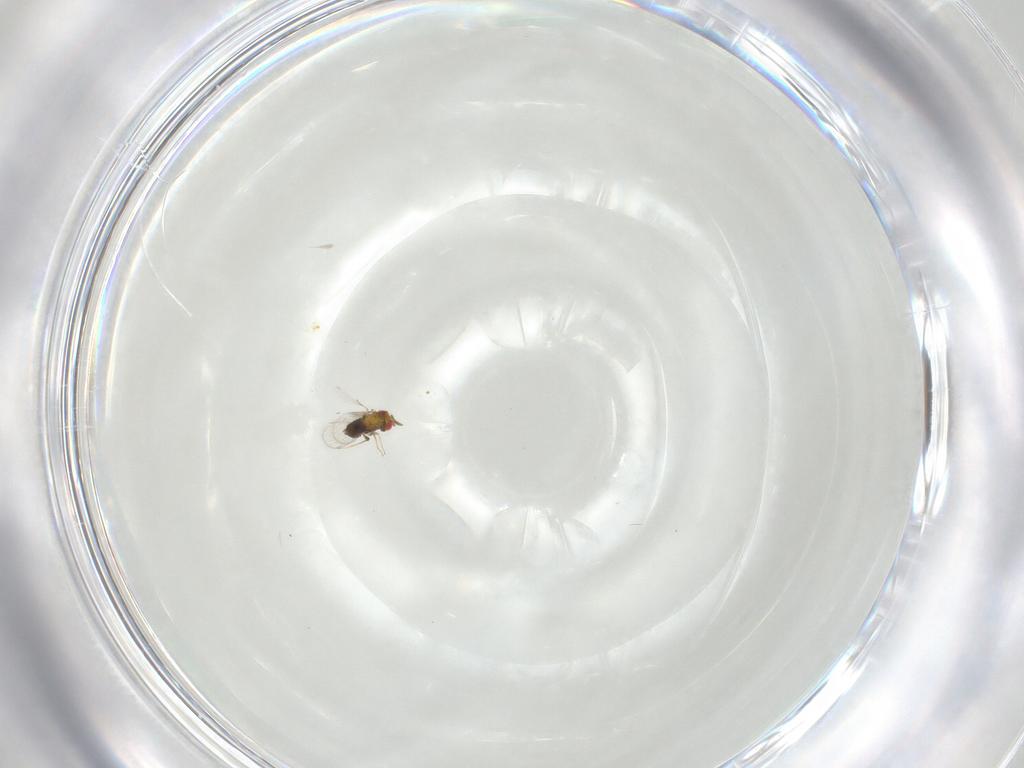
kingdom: Animalia
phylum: Arthropoda
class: Insecta
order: Hymenoptera
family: Trichogrammatidae
